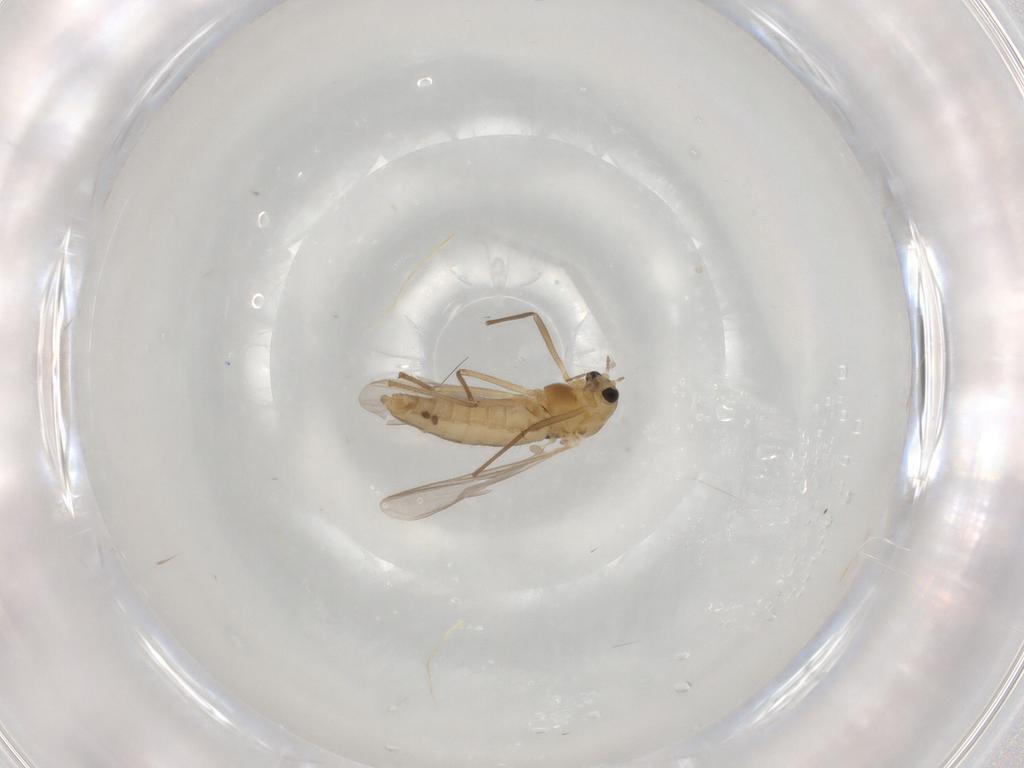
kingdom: Animalia
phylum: Arthropoda
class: Insecta
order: Diptera
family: Chironomidae
